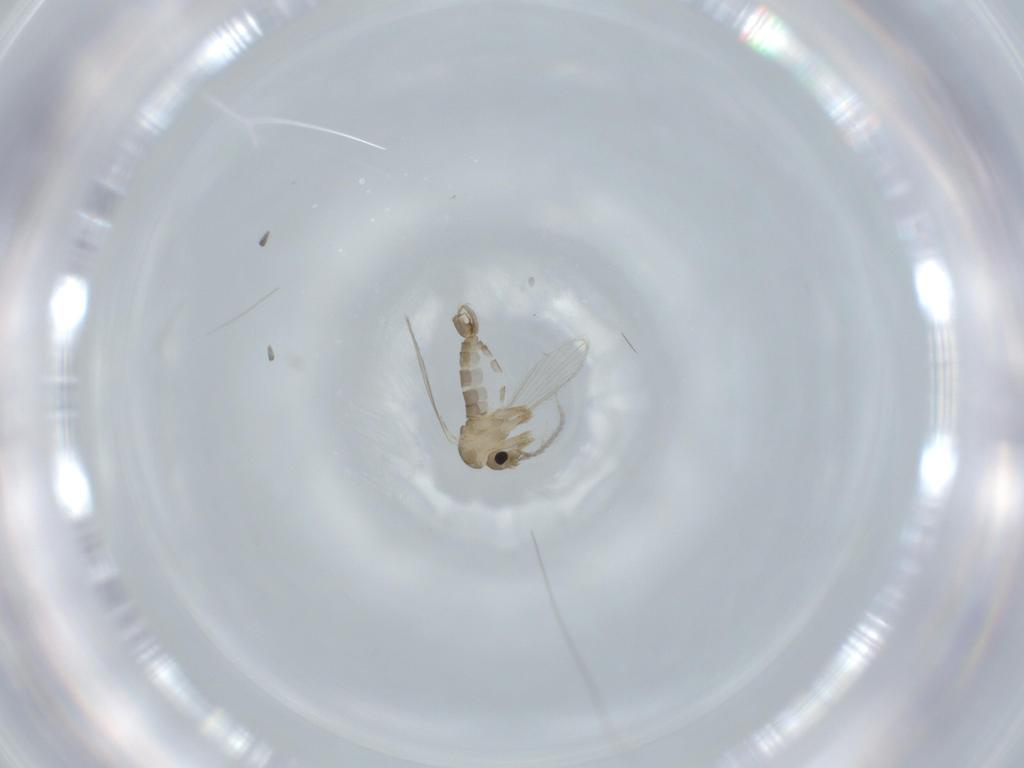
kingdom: Animalia
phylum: Arthropoda
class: Insecta
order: Diptera
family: Psychodidae
